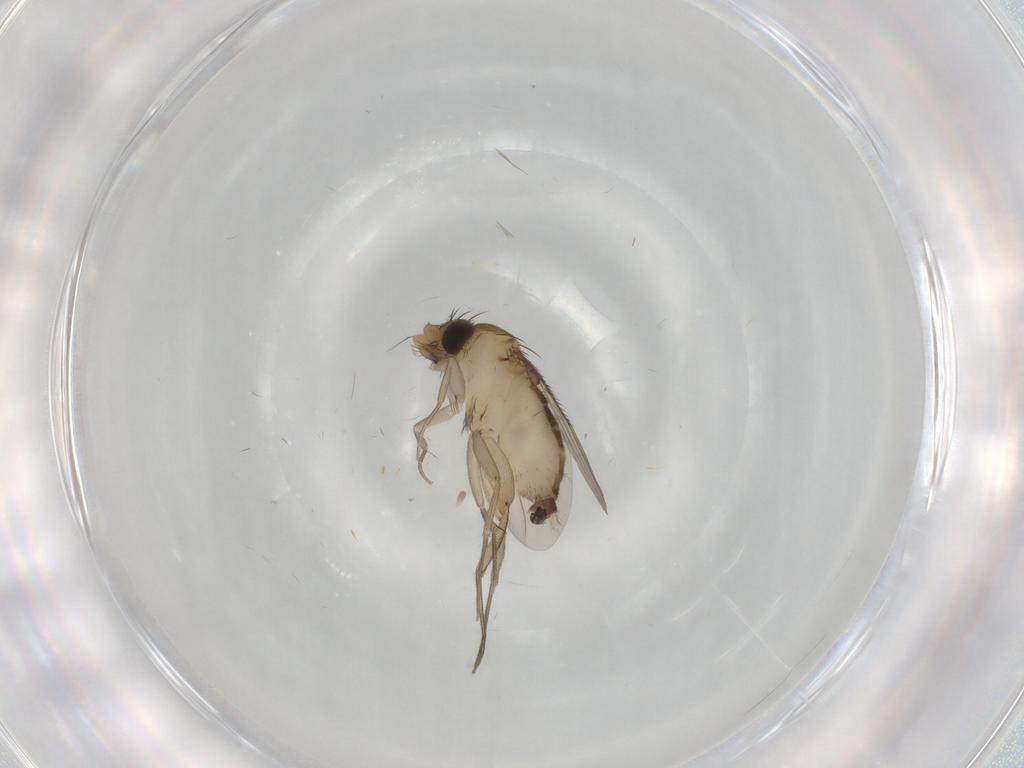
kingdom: Animalia
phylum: Arthropoda
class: Insecta
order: Diptera
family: Phoridae
